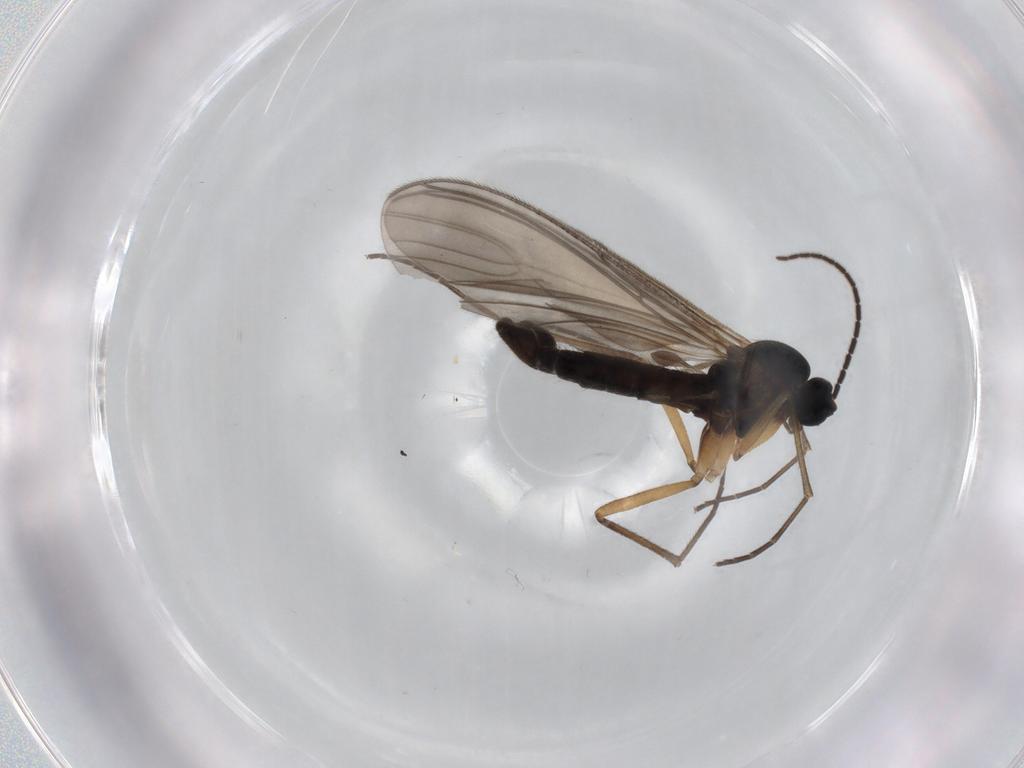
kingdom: Animalia
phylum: Arthropoda
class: Insecta
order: Diptera
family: Sciaridae
